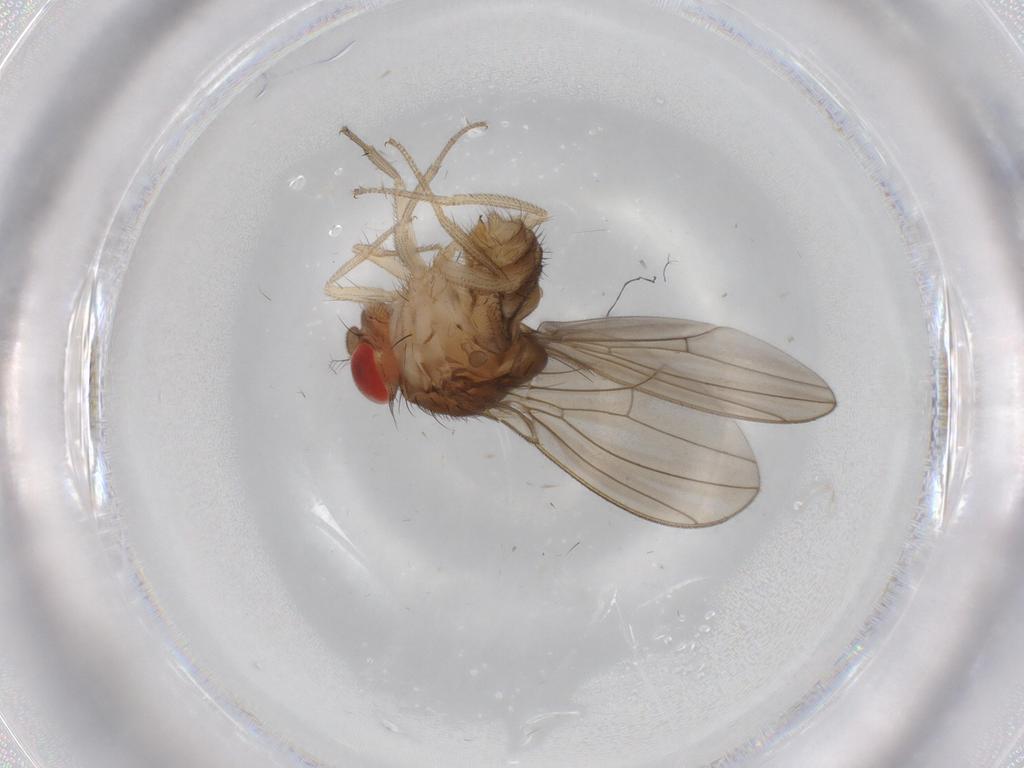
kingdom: Animalia
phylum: Arthropoda
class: Insecta
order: Diptera
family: Drosophilidae
